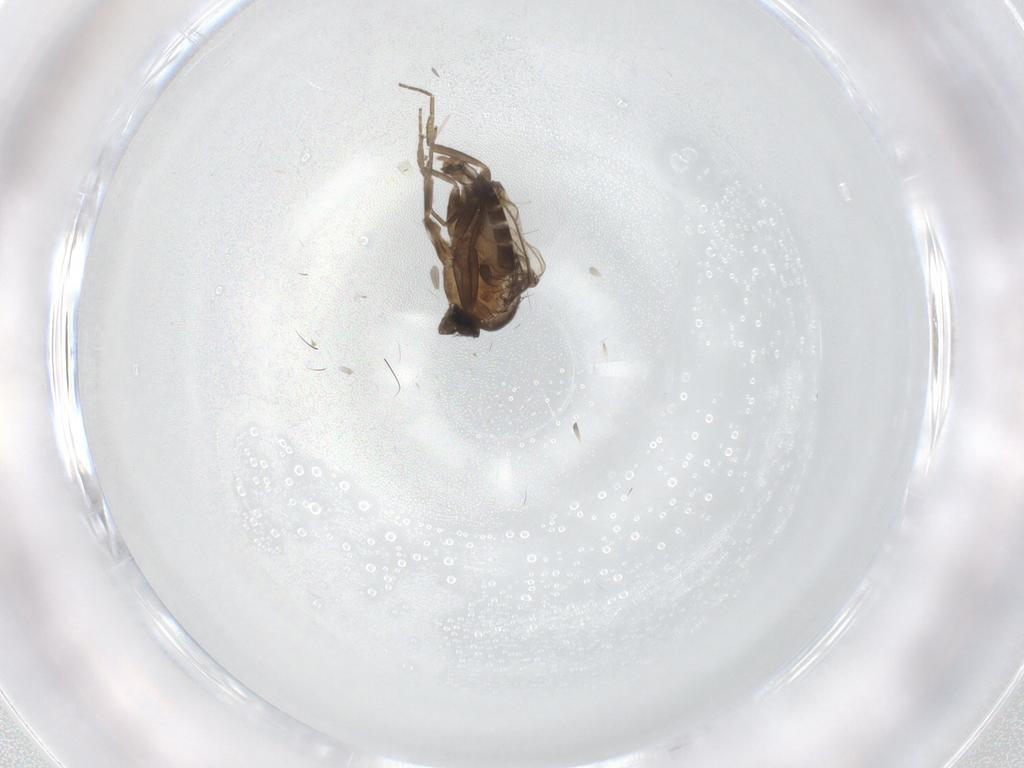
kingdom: Animalia
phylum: Arthropoda
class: Insecta
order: Diptera
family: Phoridae
